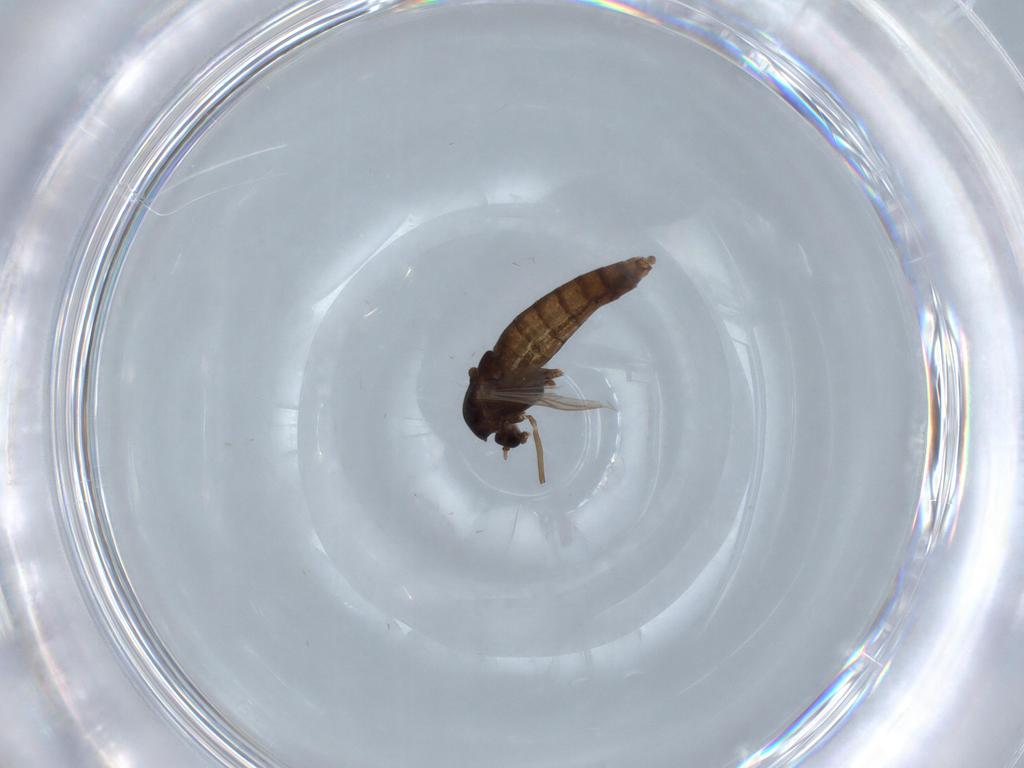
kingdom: Animalia
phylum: Arthropoda
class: Insecta
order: Diptera
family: Chironomidae
